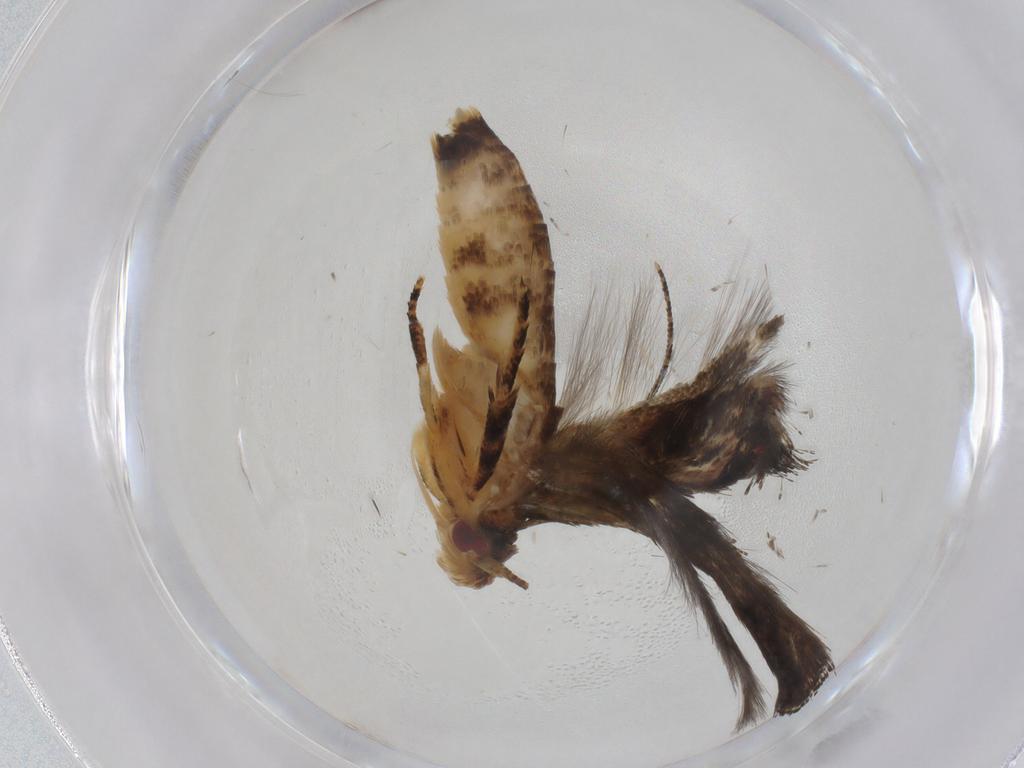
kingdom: Animalia
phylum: Arthropoda
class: Insecta
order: Lepidoptera
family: Momphidae
